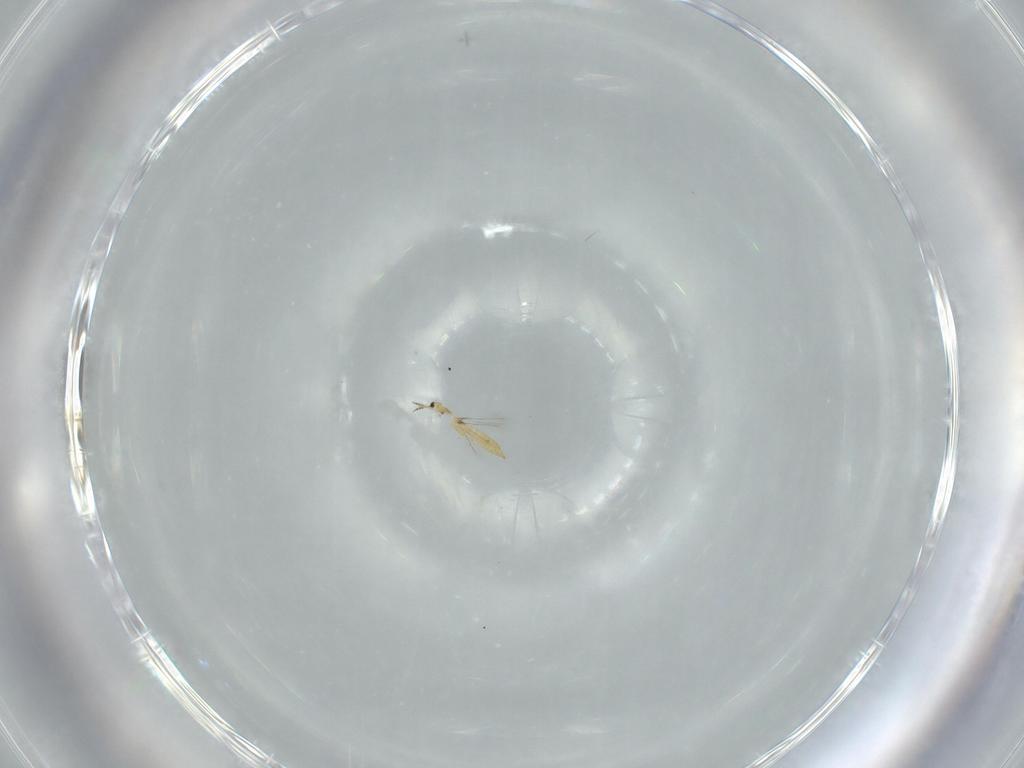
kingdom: Animalia
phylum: Arthropoda
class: Insecta
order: Thysanoptera
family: Phlaeothripidae
